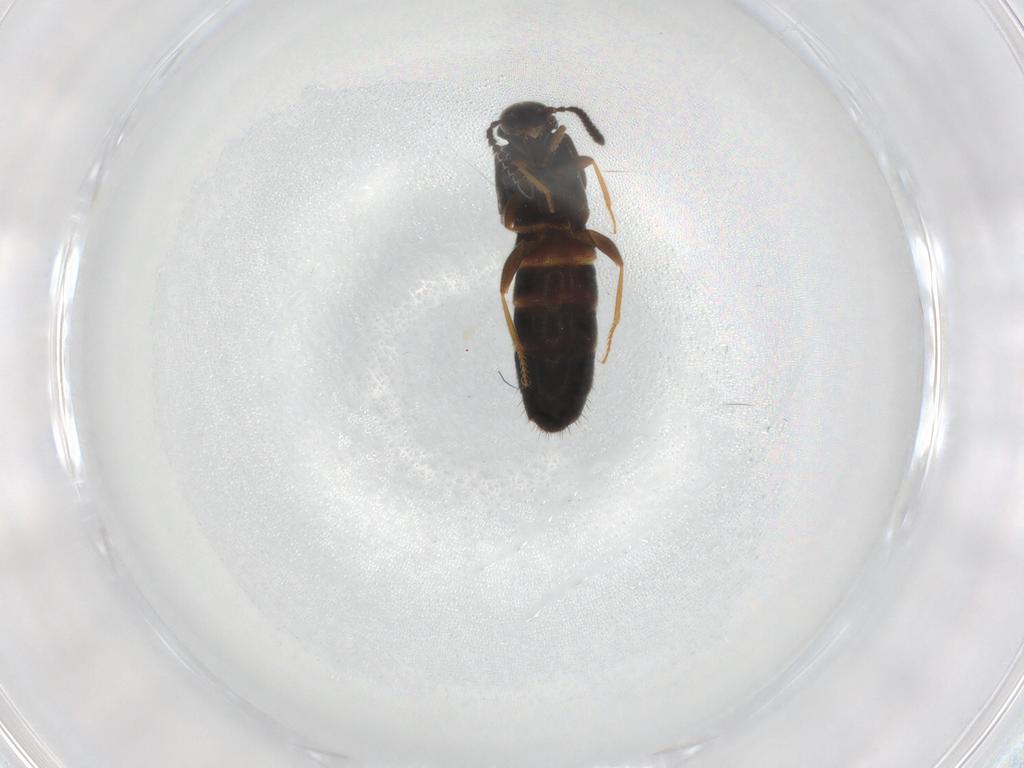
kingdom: Animalia
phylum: Arthropoda
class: Insecta
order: Coleoptera
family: Staphylinidae
